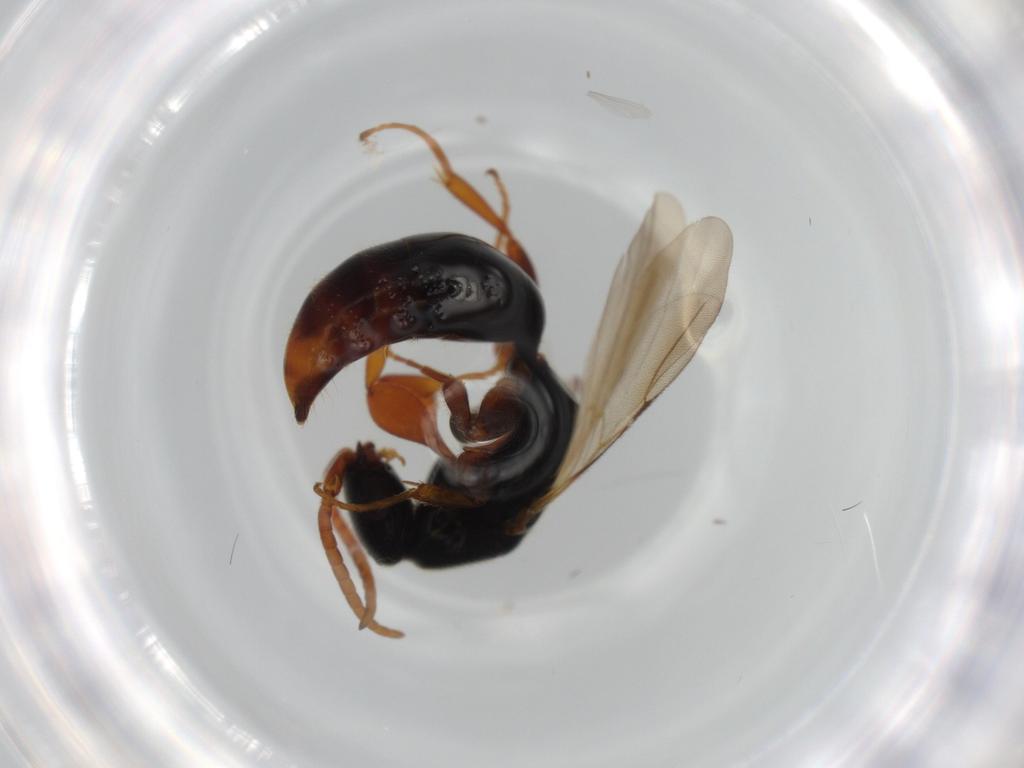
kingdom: Animalia
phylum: Arthropoda
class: Insecta
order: Hymenoptera
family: Bethylidae
